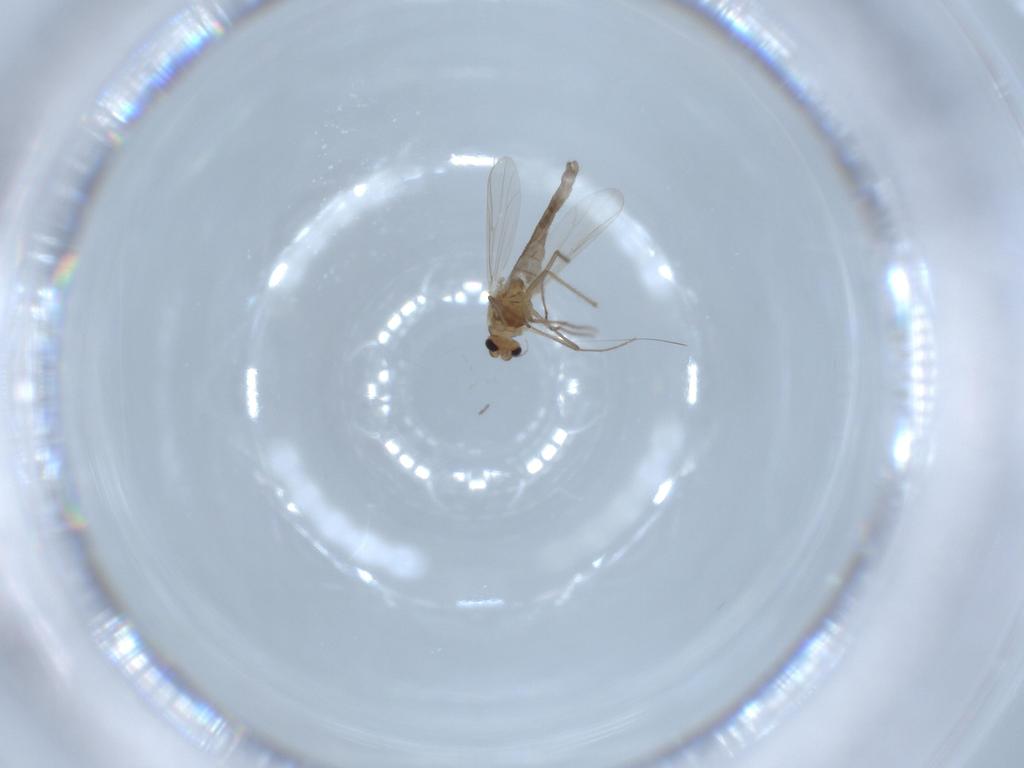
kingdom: Animalia
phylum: Arthropoda
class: Insecta
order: Diptera
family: Chironomidae
